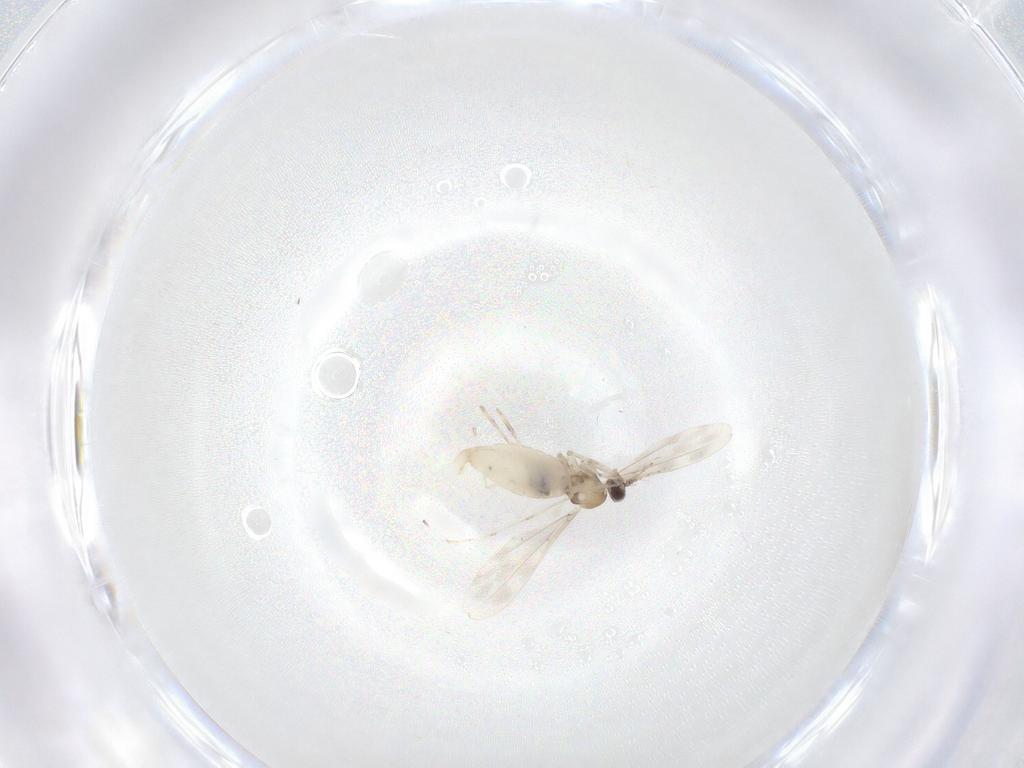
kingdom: Animalia
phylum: Arthropoda
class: Insecta
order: Diptera
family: Cecidomyiidae
